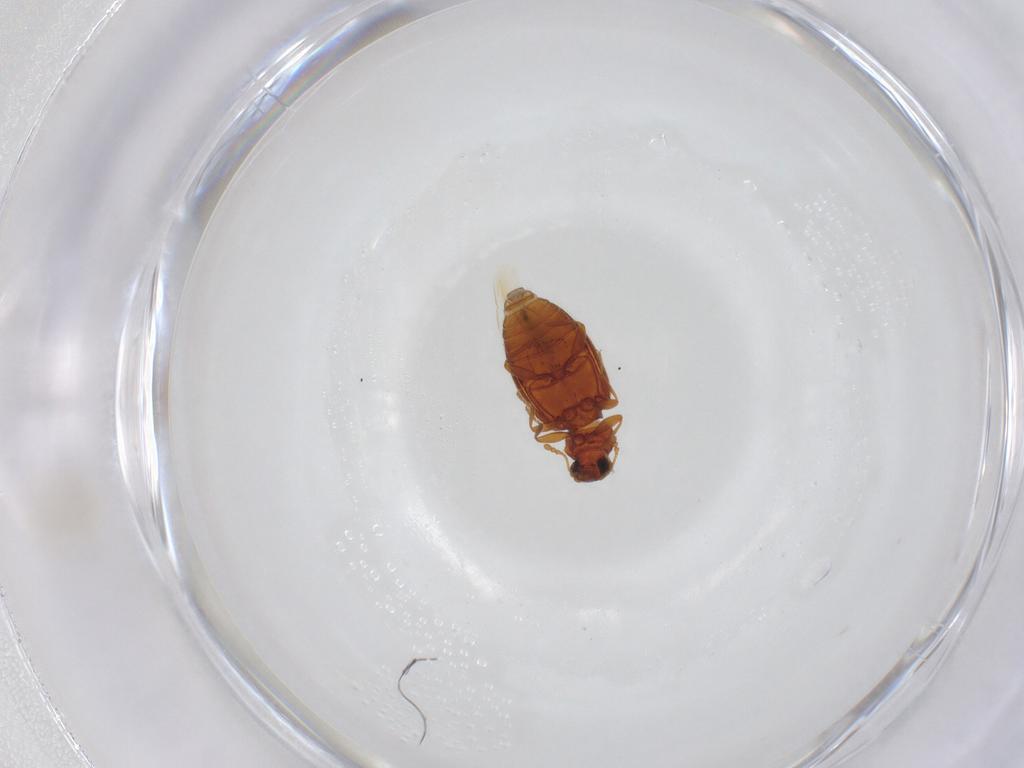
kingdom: Animalia
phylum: Arthropoda
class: Insecta
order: Coleoptera
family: Latridiidae
